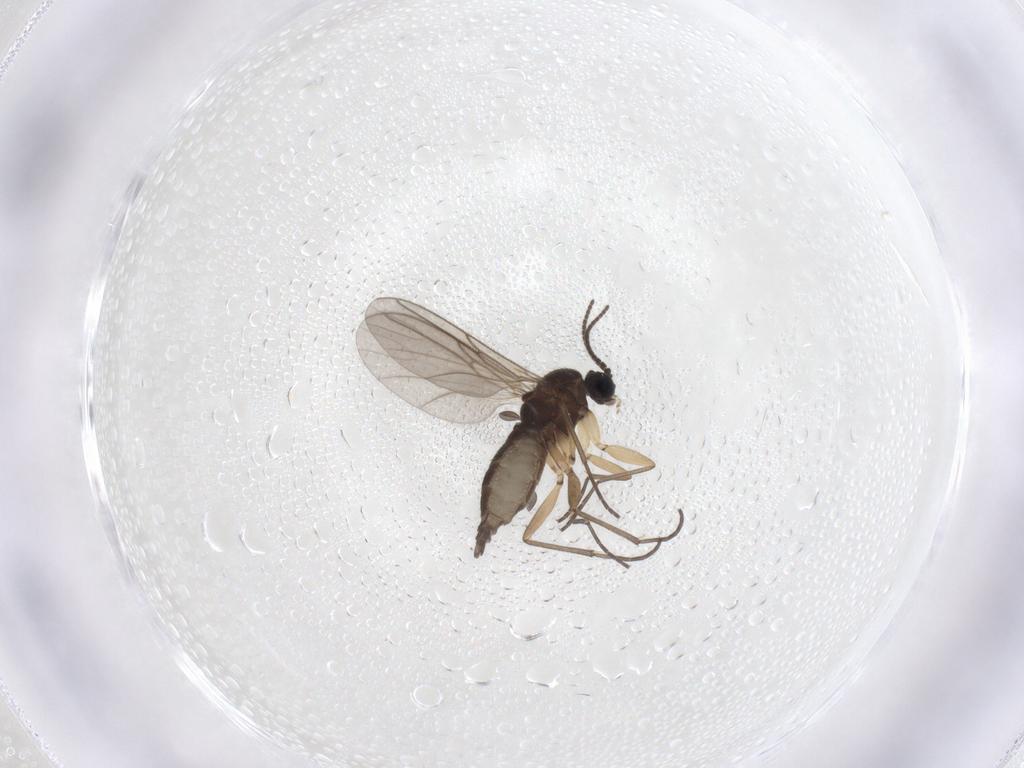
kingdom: Animalia
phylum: Arthropoda
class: Insecta
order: Diptera
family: Sciaridae
